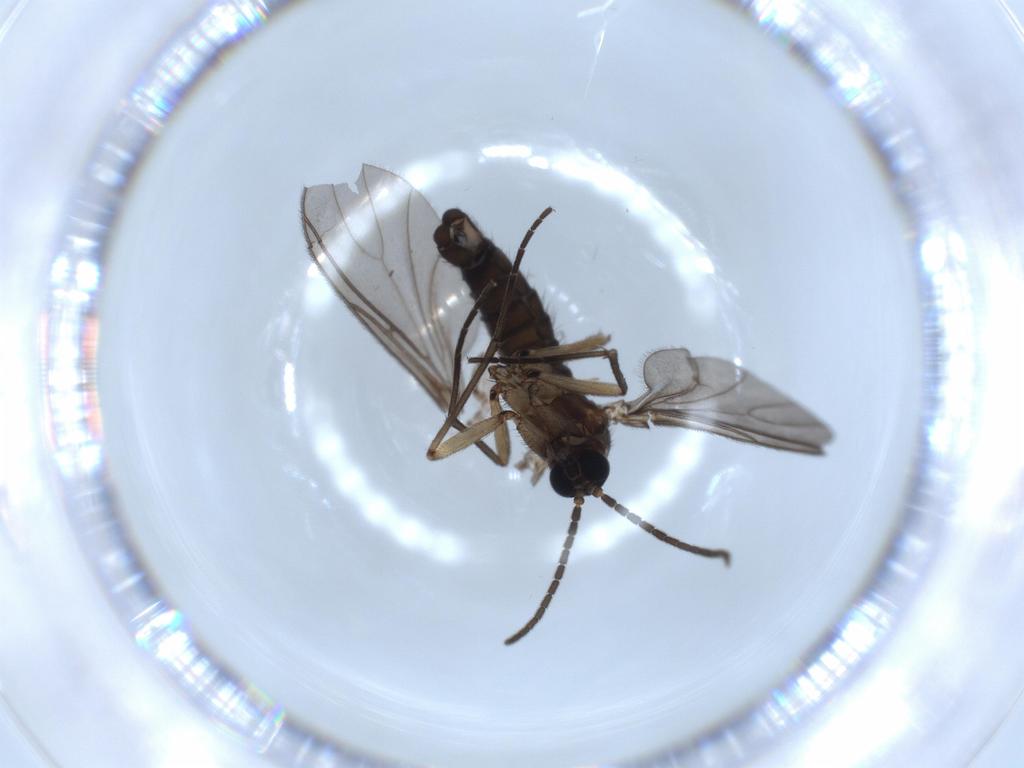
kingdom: Animalia
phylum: Arthropoda
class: Insecta
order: Diptera
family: Sciaridae
